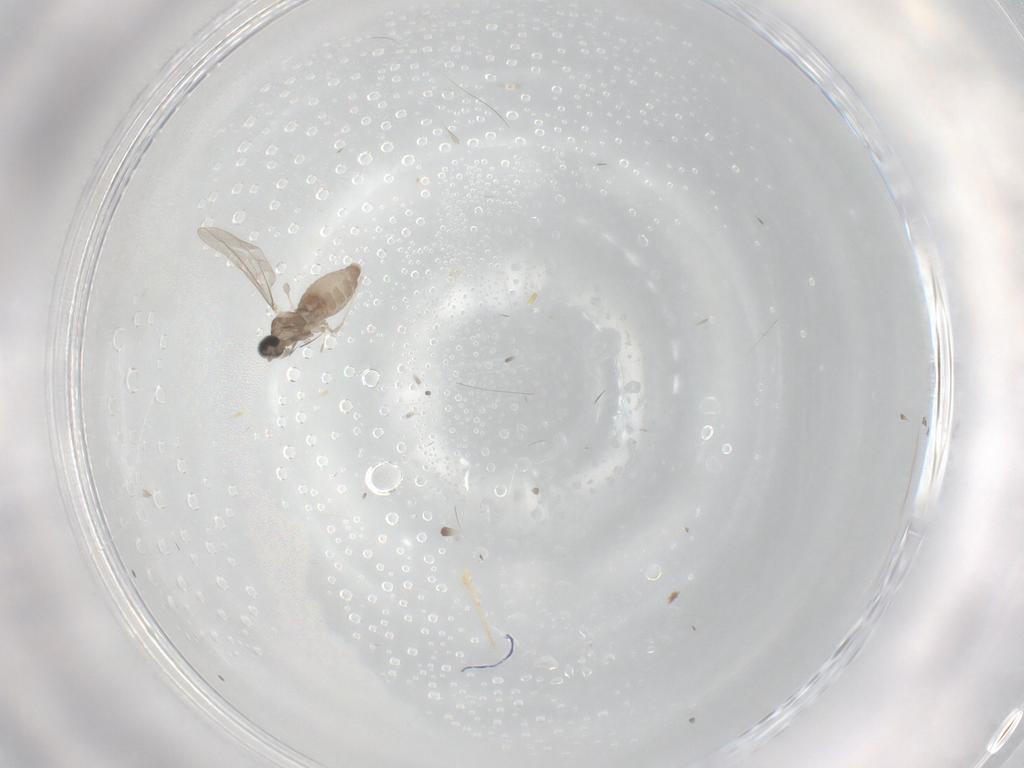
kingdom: Animalia
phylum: Arthropoda
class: Insecta
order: Diptera
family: Cecidomyiidae
